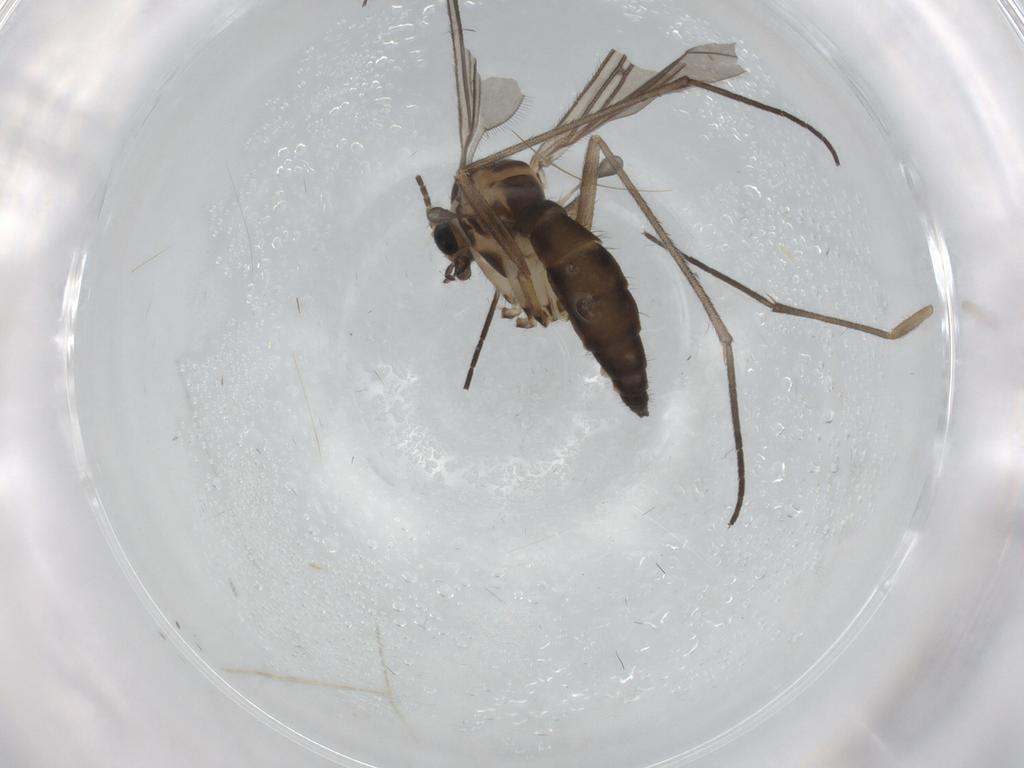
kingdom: Animalia
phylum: Arthropoda
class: Insecta
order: Diptera
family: Sciaridae
